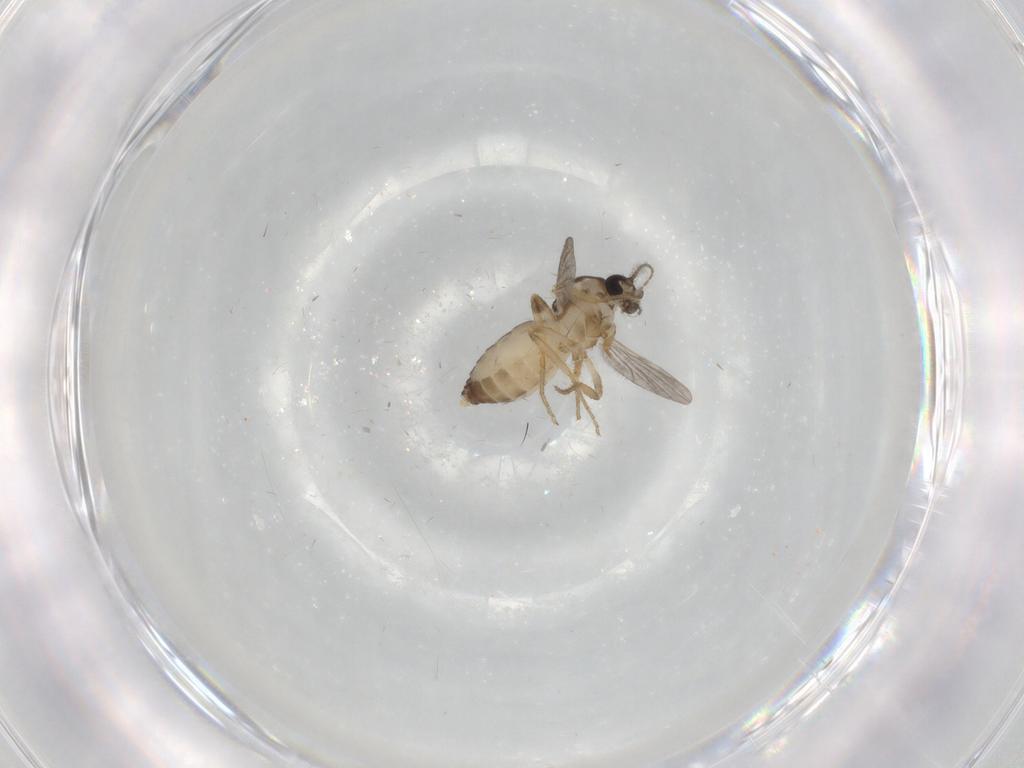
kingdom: Animalia
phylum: Arthropoda
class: Insecta
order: Diptera
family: Ceratopogonidae
